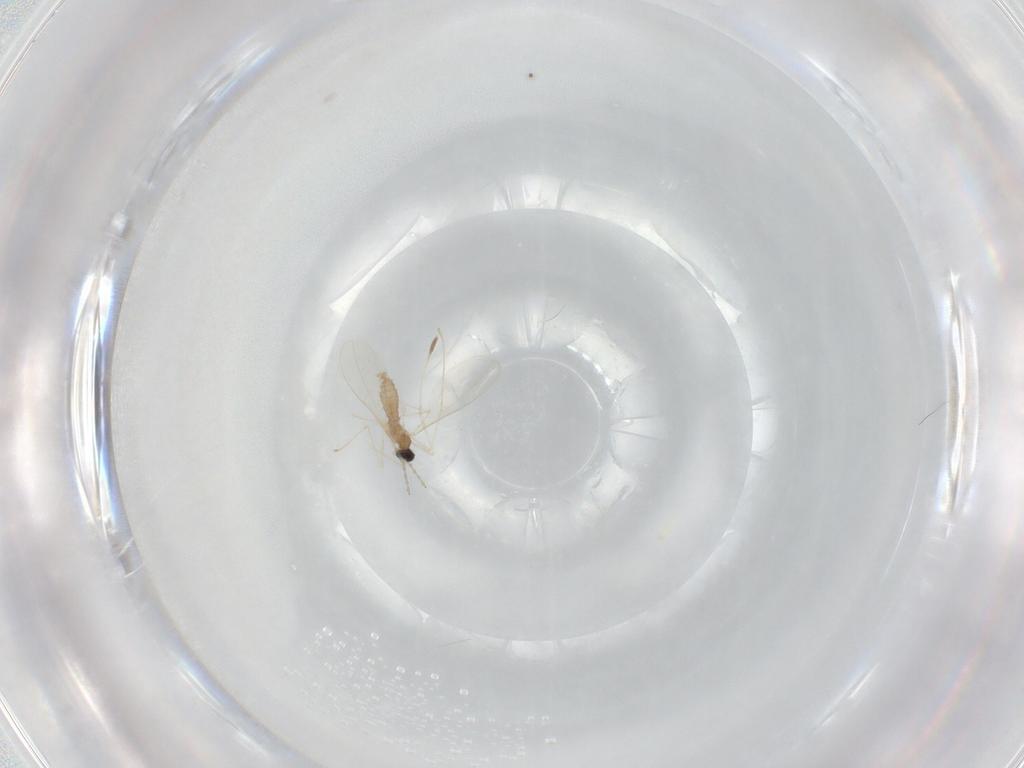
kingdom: Animalia
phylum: Arthropoda
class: Insecta
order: Diptera
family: Cecidomyiidae
